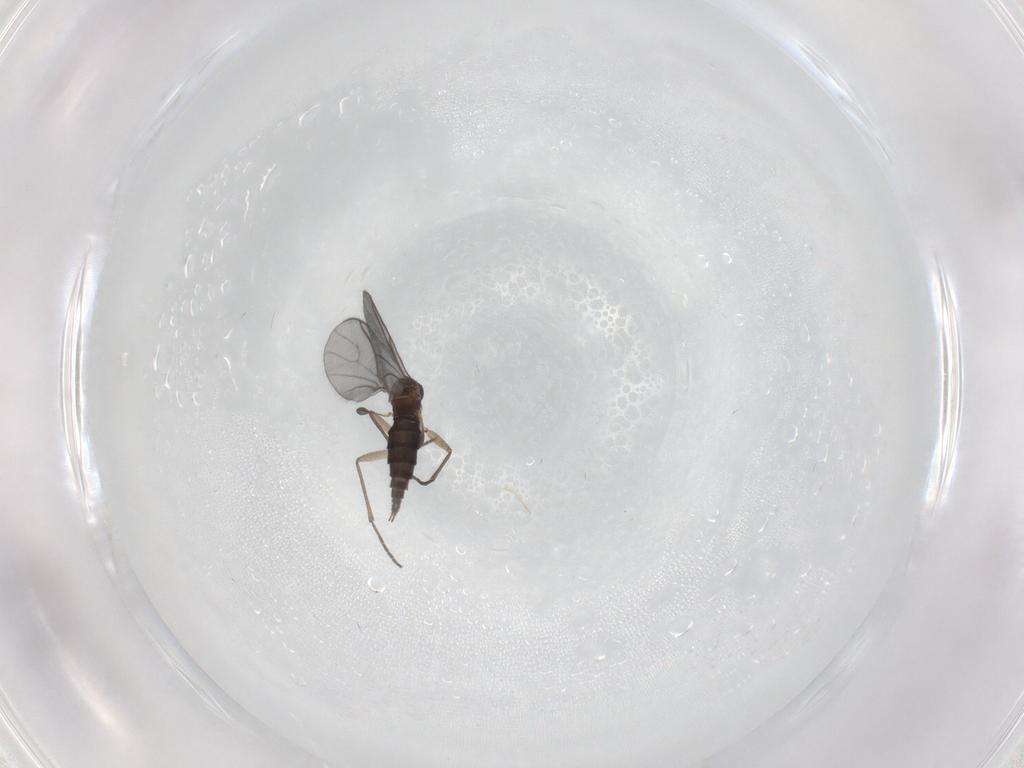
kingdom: Animalia
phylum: Arthropoda
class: Insecta
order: Diptera
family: Sciaridae
